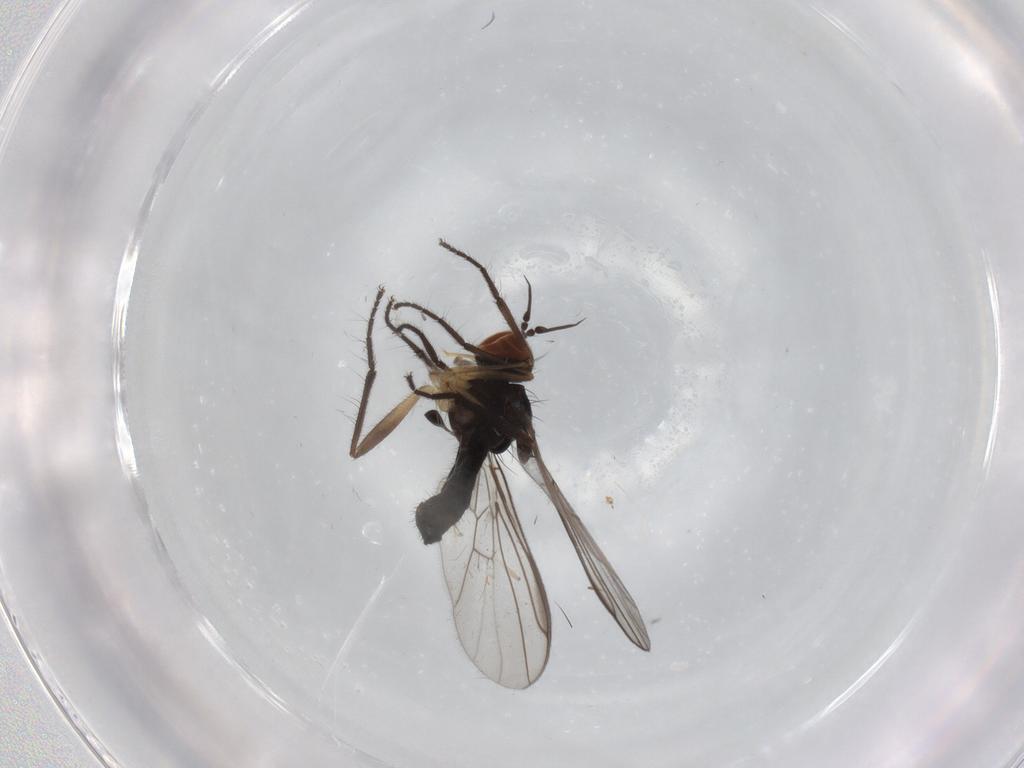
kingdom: Animalia
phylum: Arthropoda
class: Insecta
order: Diptera
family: Empididae
